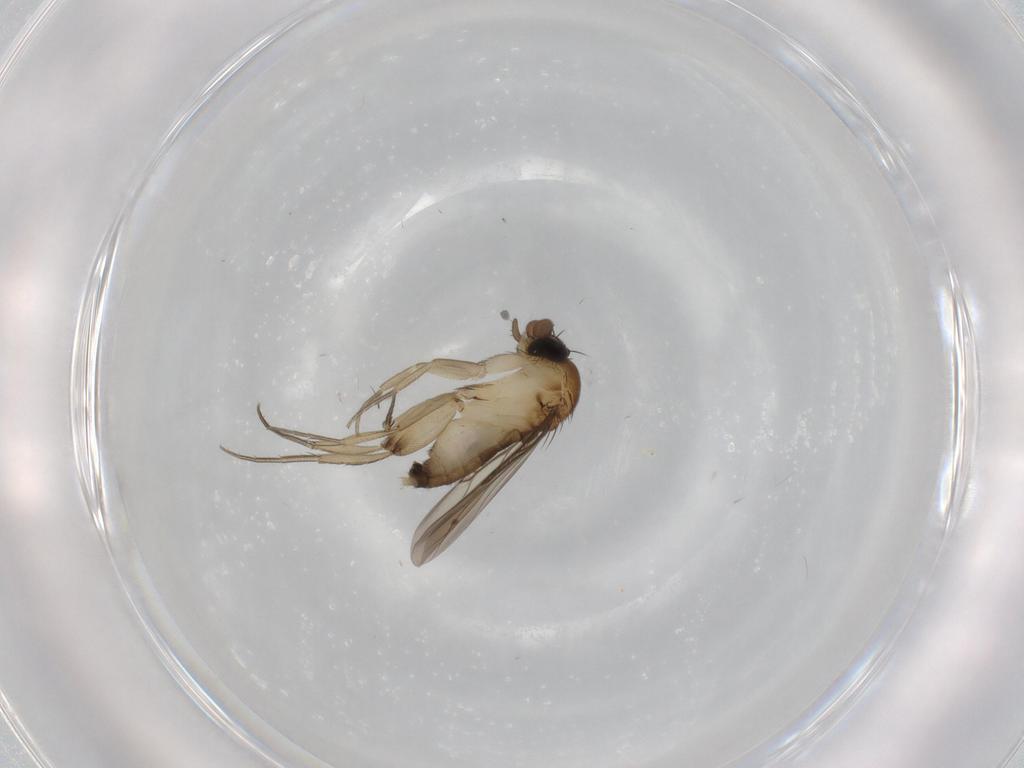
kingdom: Animalia
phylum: Arthropoda
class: Insecta
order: Diptera
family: Phoridae
